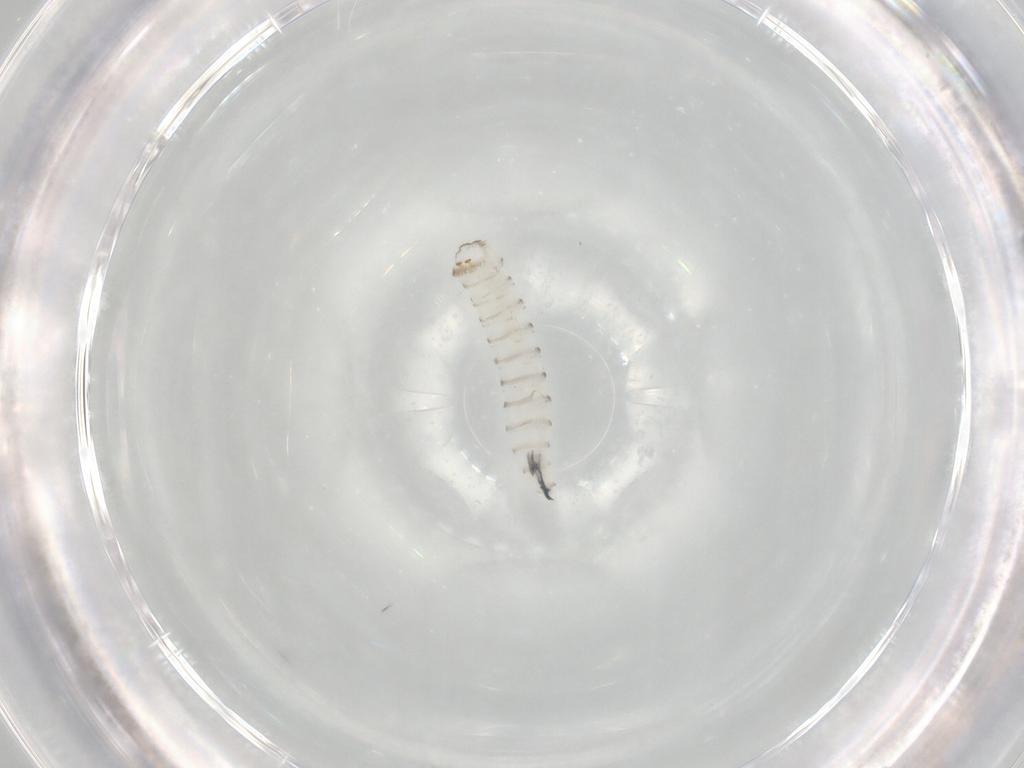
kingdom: Animalia
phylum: Arthropoda
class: Insecta
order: Diptera
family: Sarcophagidae
